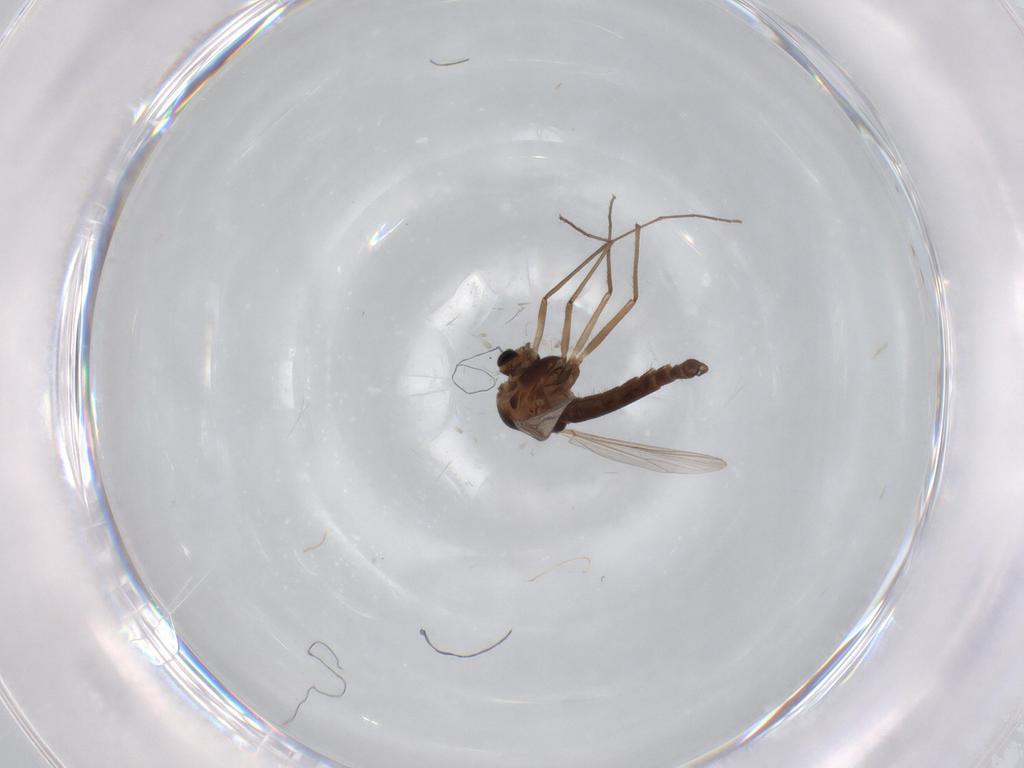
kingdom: Animalia
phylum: Arthropoda
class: Insecta
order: Diptera
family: Chironomidae
